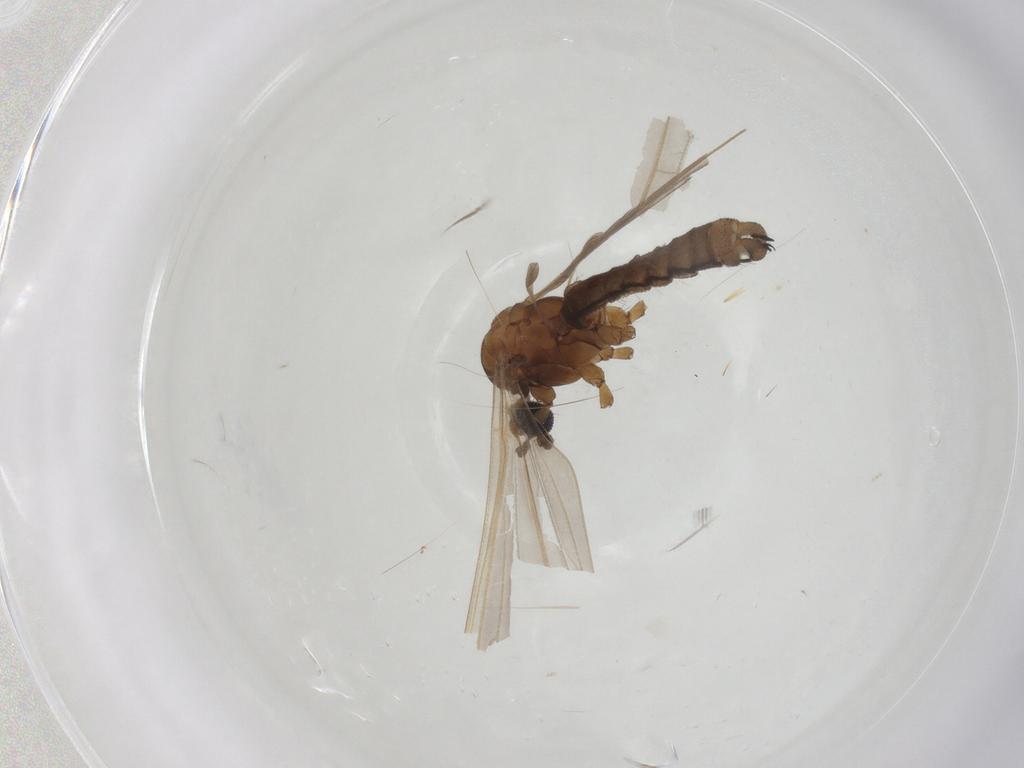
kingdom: Animalia
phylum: Arthropoda
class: Insecta
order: Diptera
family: Limoniidae
